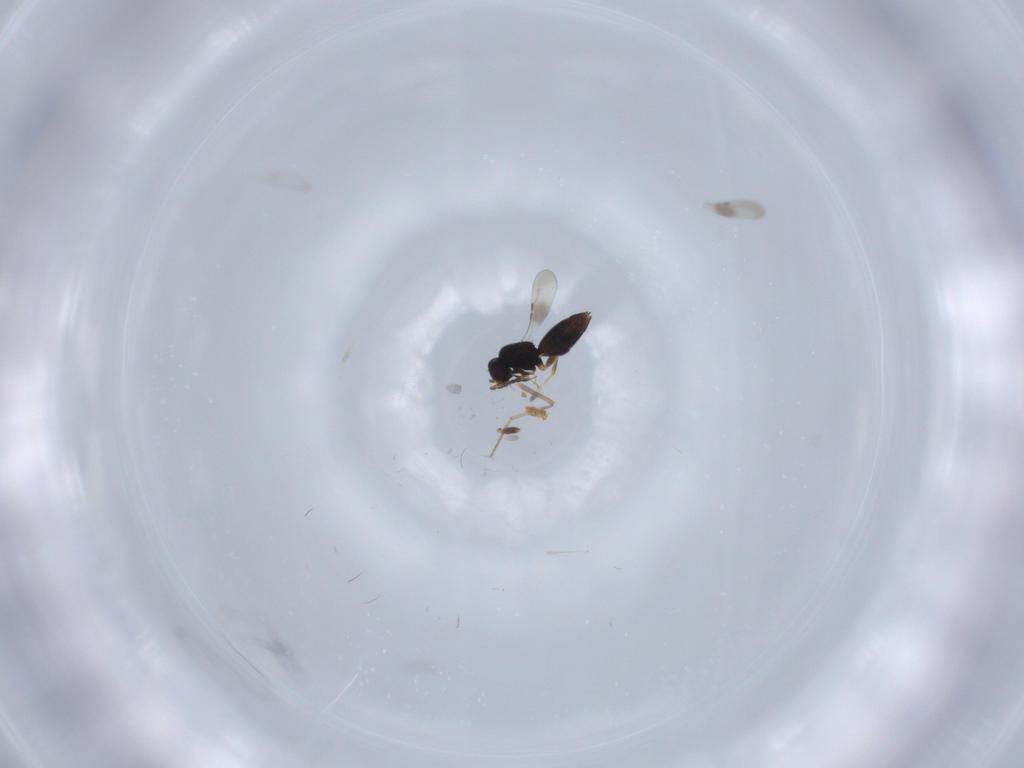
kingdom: Animalia
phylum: Arthropoda
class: Insecta
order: Hymenoptera
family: Ceraphronidae
